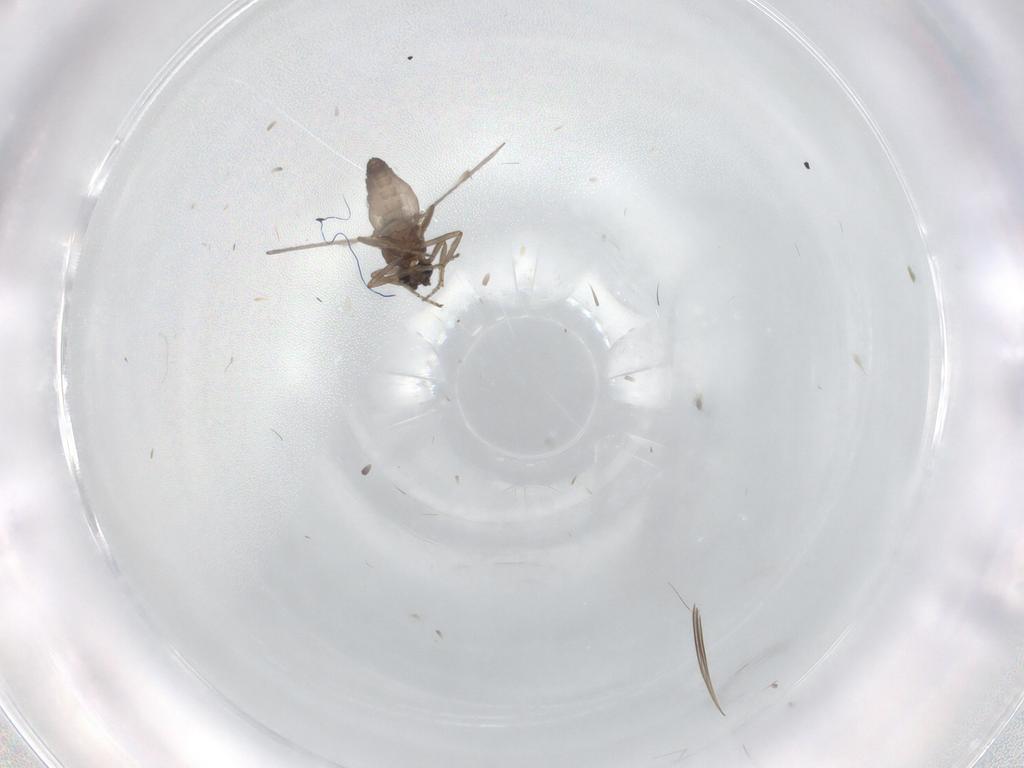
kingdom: Animalia
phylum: Arthropoda
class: Insecta
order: Diptera
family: Ceratopogonidae
